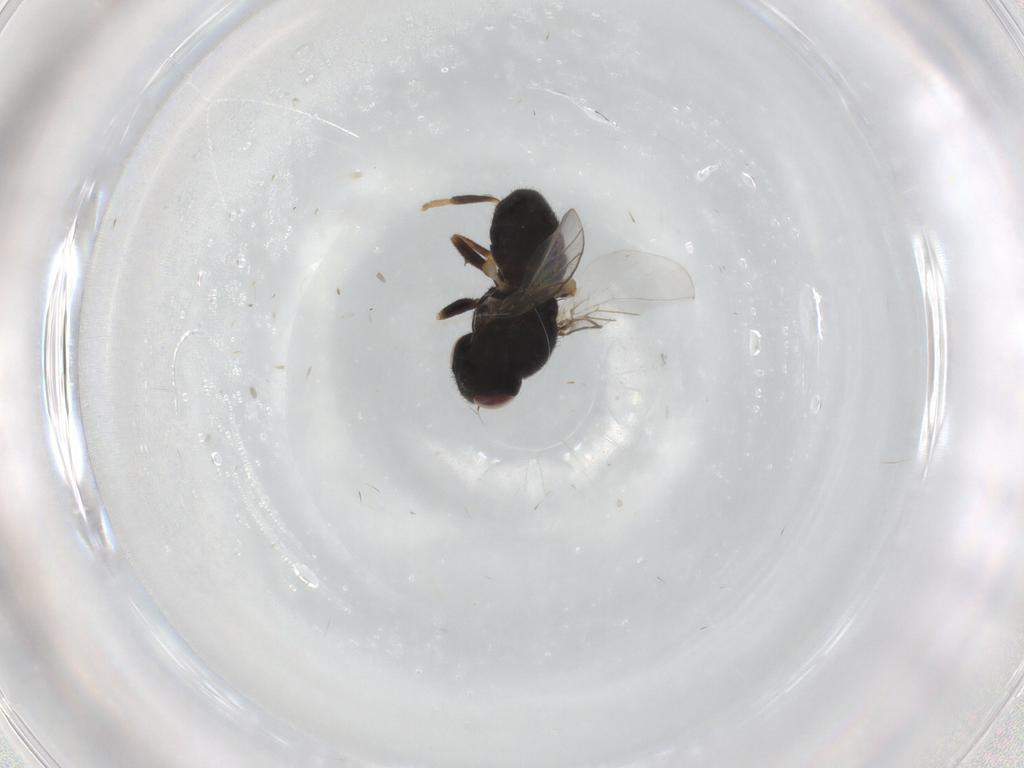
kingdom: Animalia
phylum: Arthropoda
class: Insecta
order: Diptera
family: Chloropidae
